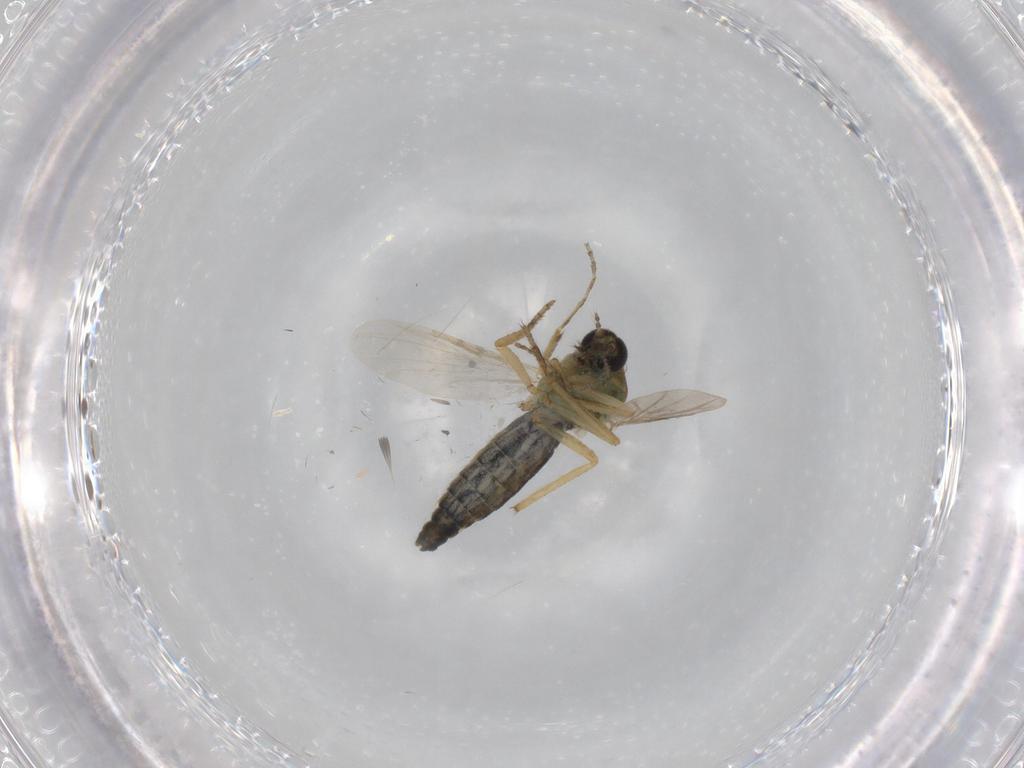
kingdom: Animalia
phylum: Arthropoda
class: Insecta
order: Diptera
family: Ceratopogonidae
